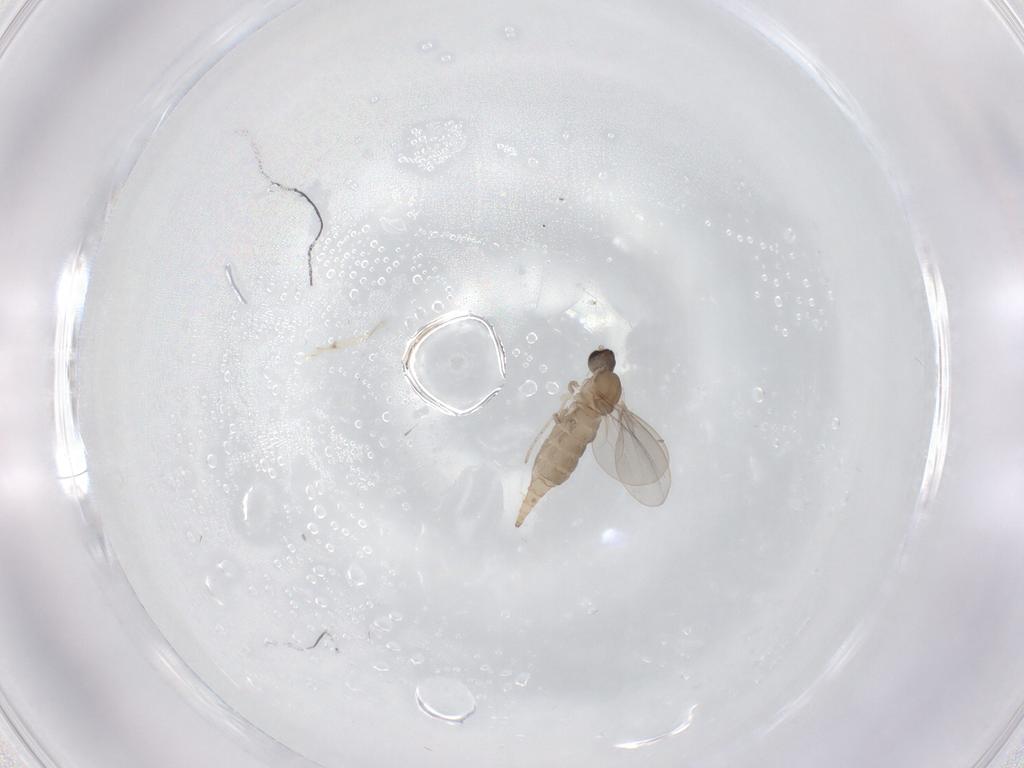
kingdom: Animalia
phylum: Arthropoda
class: Insecta
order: Diptera
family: Cecidomyiidae
